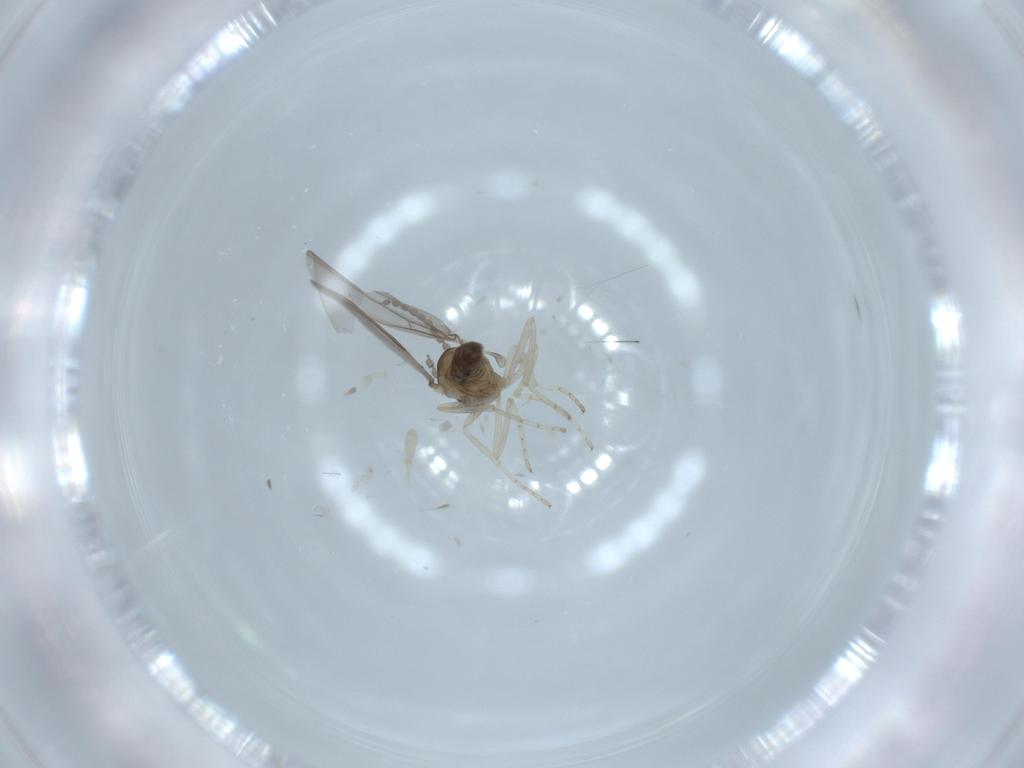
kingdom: Animalia
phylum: Arthropoda
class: Insecta
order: Diptera
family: Cecidomyiidae
